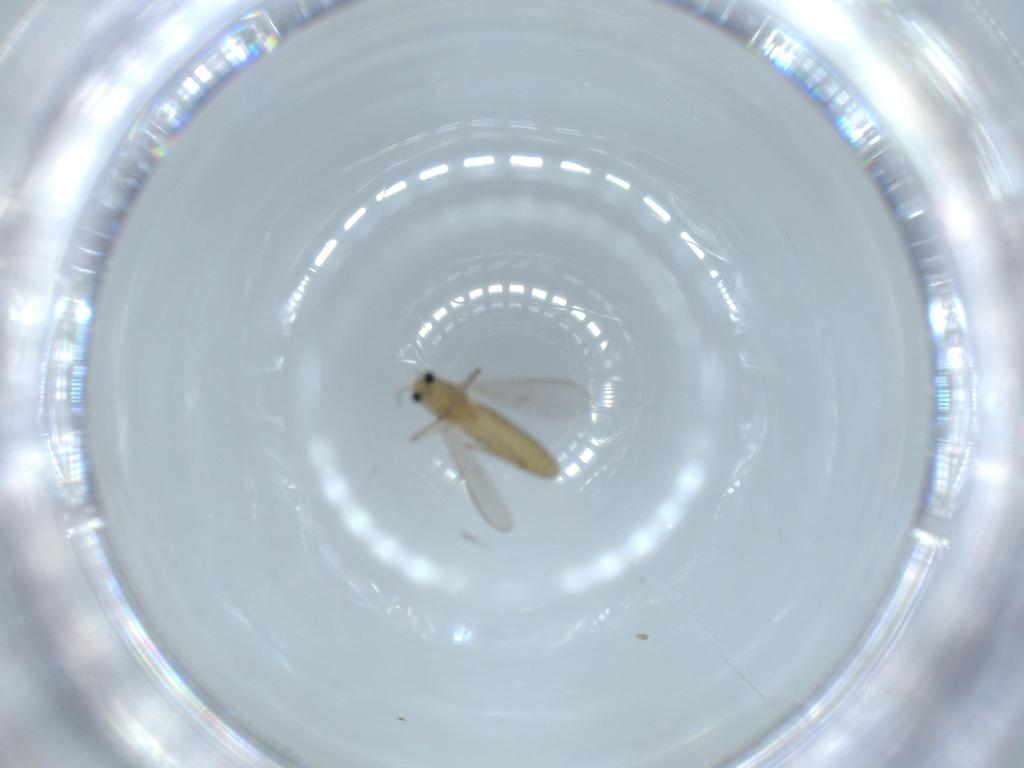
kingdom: Animalia
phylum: Arthropoda
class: Insecta
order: Diptera
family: Chironomidae
